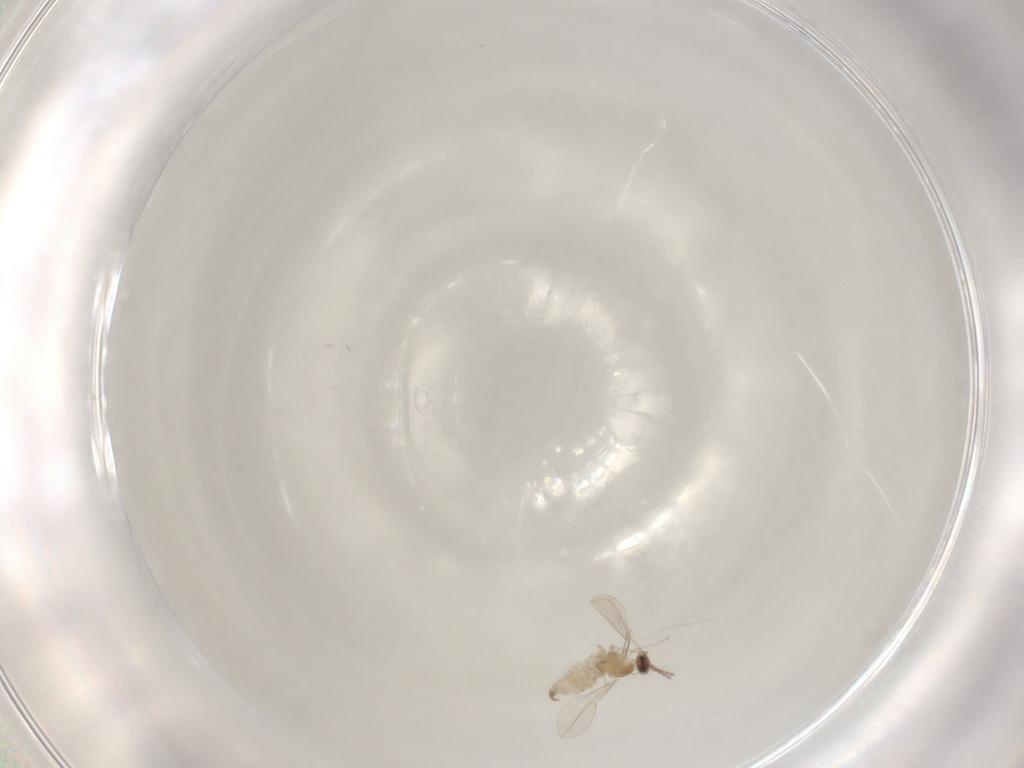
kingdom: Animalia
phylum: Arthropoda
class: Insecta
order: Diptera
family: Cecidomyiidae
